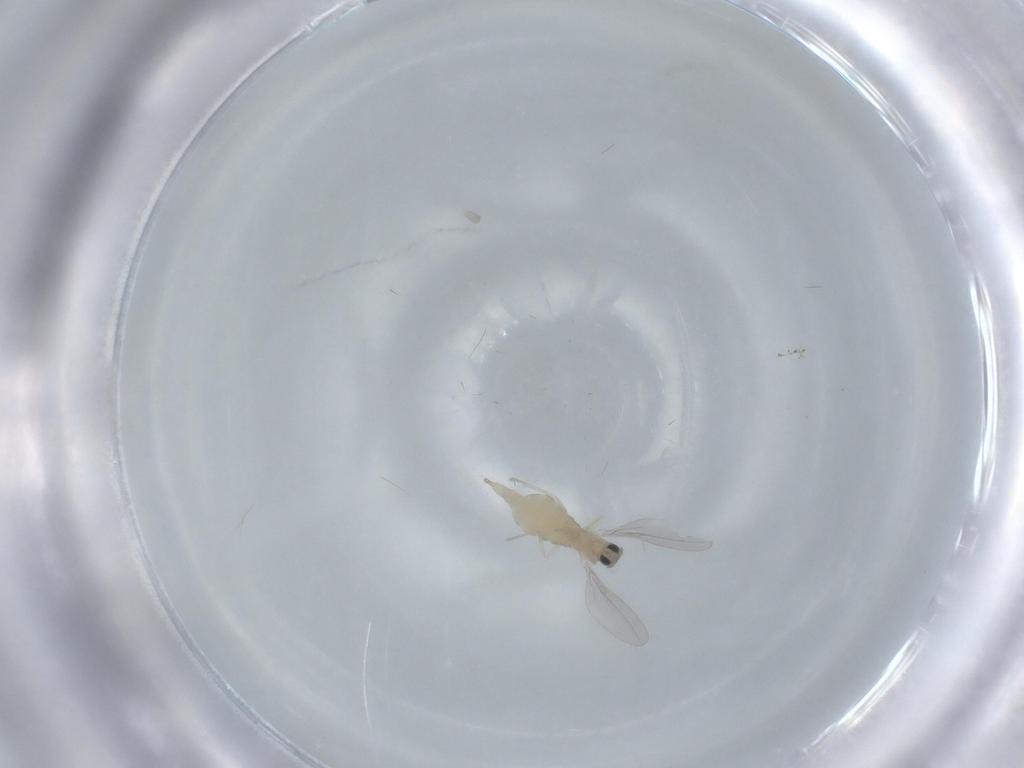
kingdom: Animalia
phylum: Arthropoda
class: Insecta
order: Diptera
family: Cecidomyiidae
